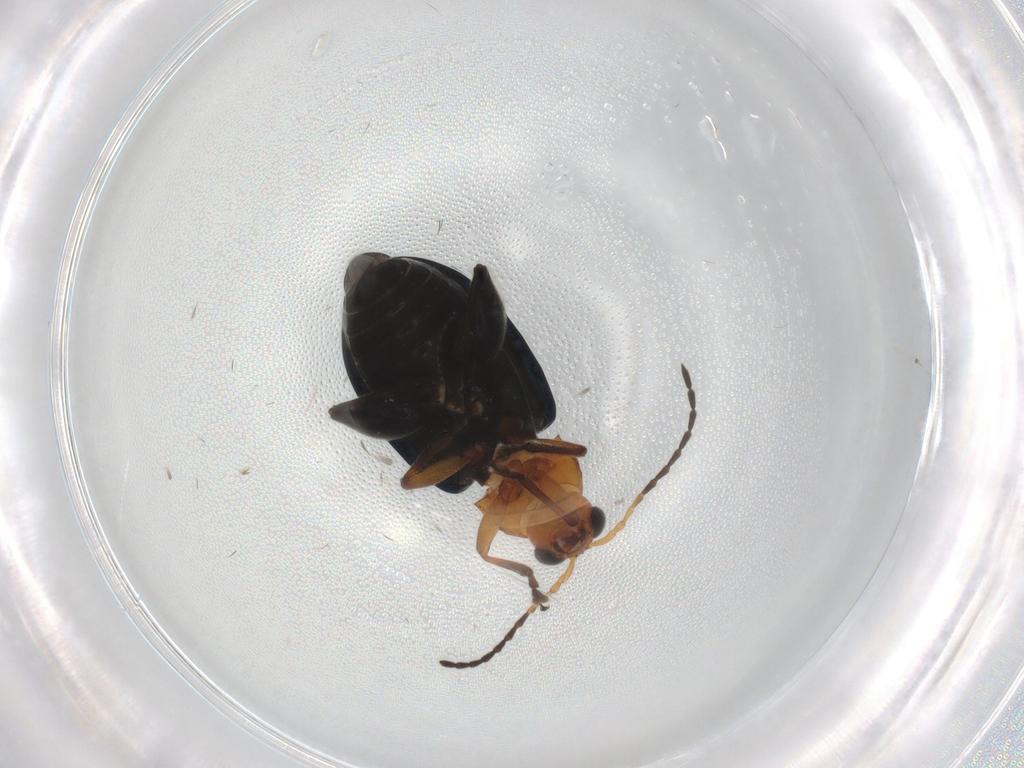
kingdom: Animalia
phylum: Arthropoda
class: Insecta
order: Coleoptera
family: Chrysomelidae
